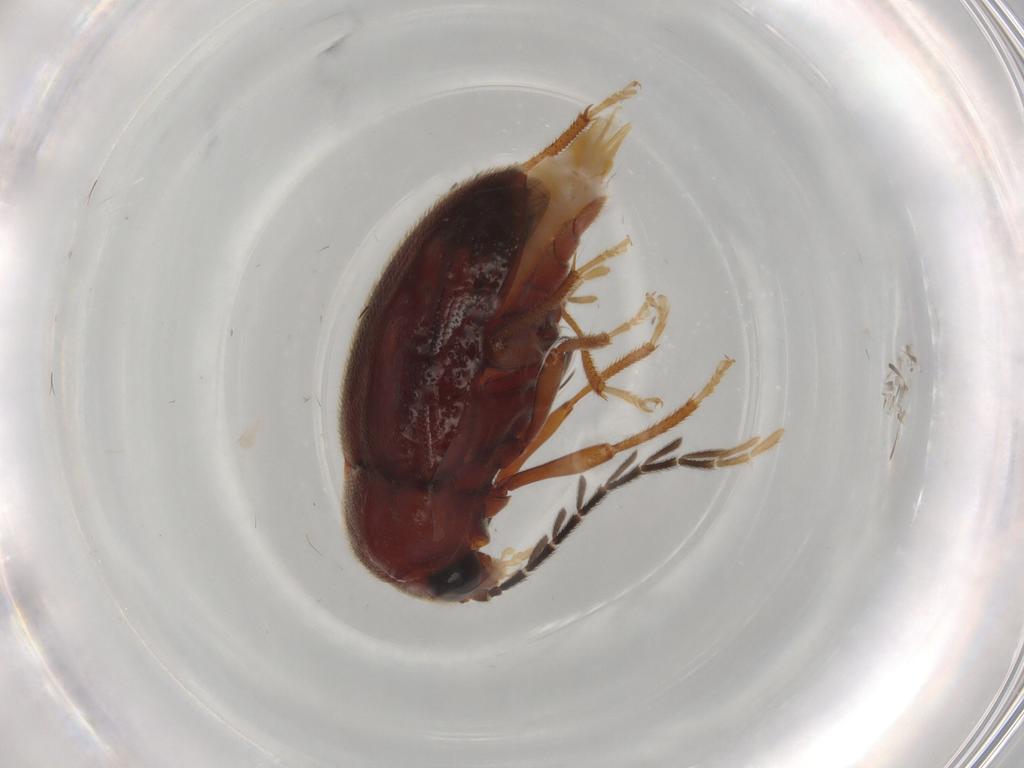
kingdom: Animalia
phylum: Arthropoda
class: Insecta
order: Coleoptera
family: Ptilodactylidae
